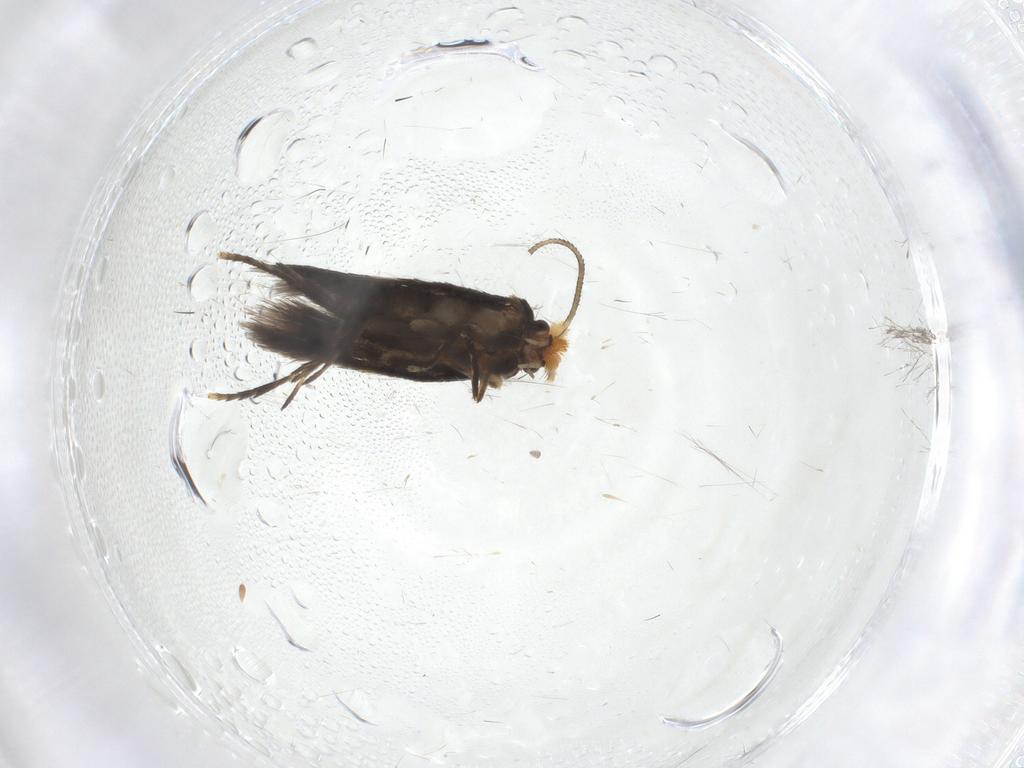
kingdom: Animalia
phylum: Arthropoda
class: Insecta
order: Lepidoptera
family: Nepticulidae
